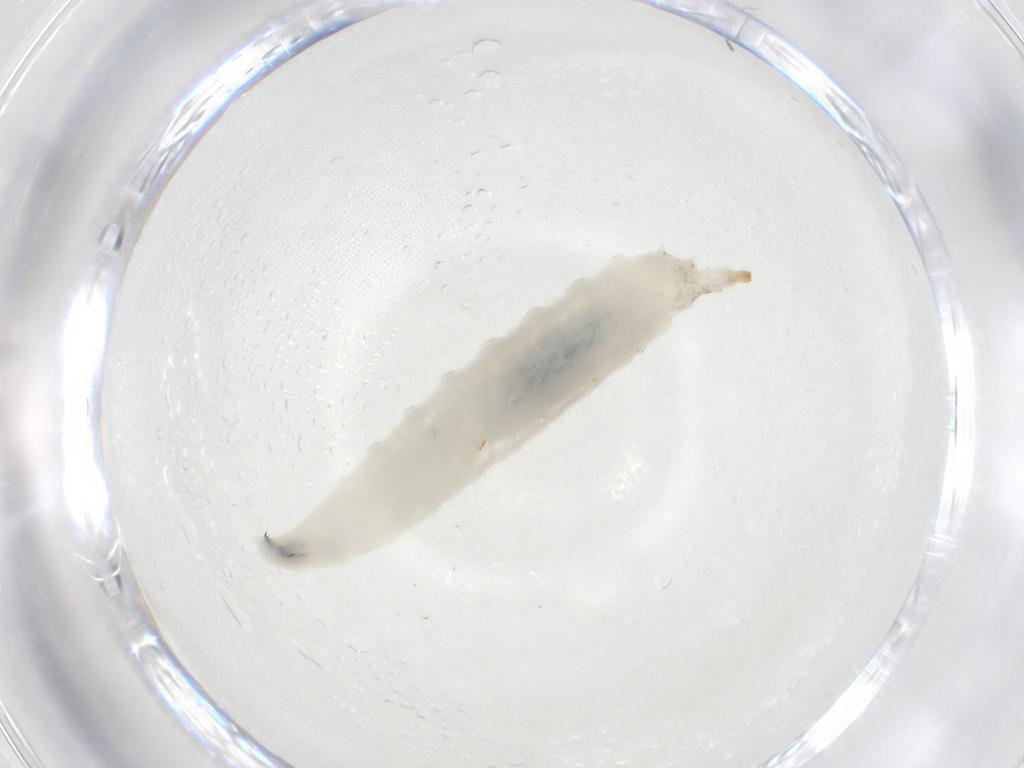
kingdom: Animalia
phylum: Arthropoda
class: Insecta
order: Diptera
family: Drosophilidae
